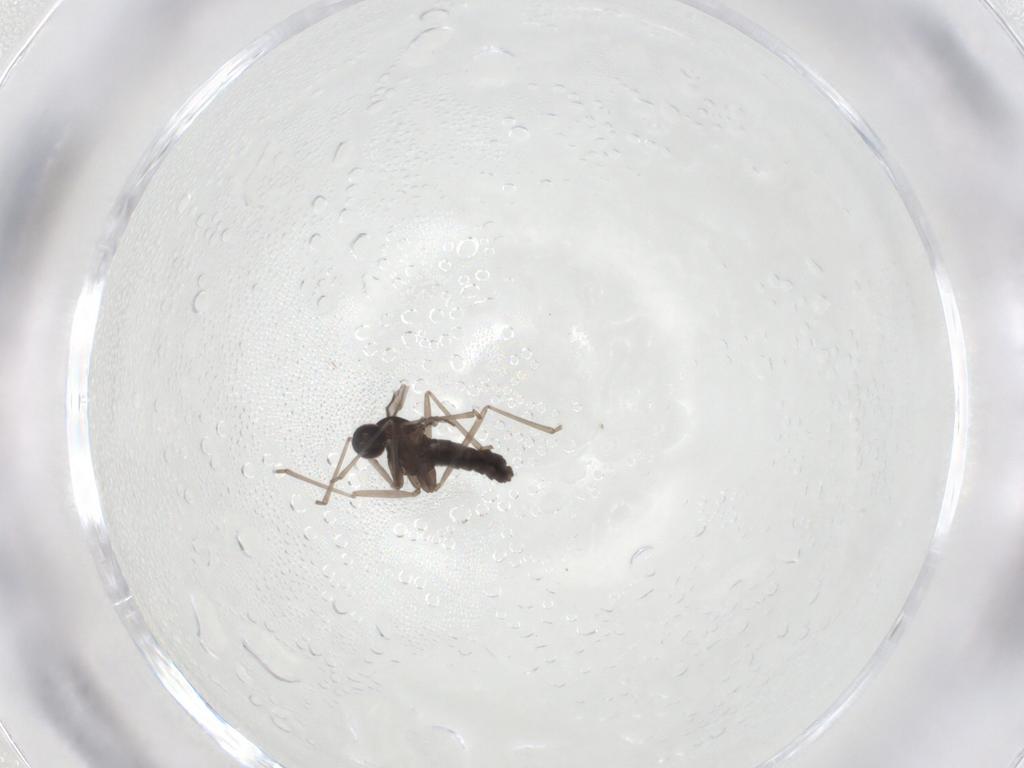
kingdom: Animalia
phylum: Arthropoda
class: Insecta
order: Diptera
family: Cecidomyiidae
